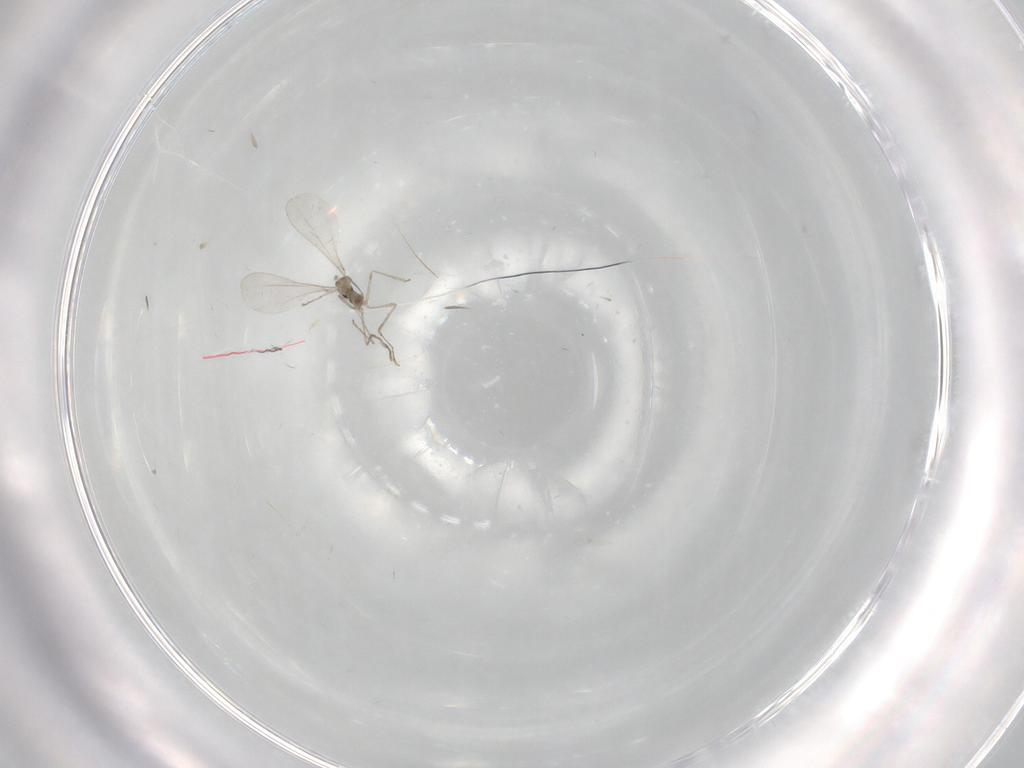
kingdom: Animalia
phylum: Arthropoda
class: Insecta
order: Diptera
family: Cecidomyiidae
